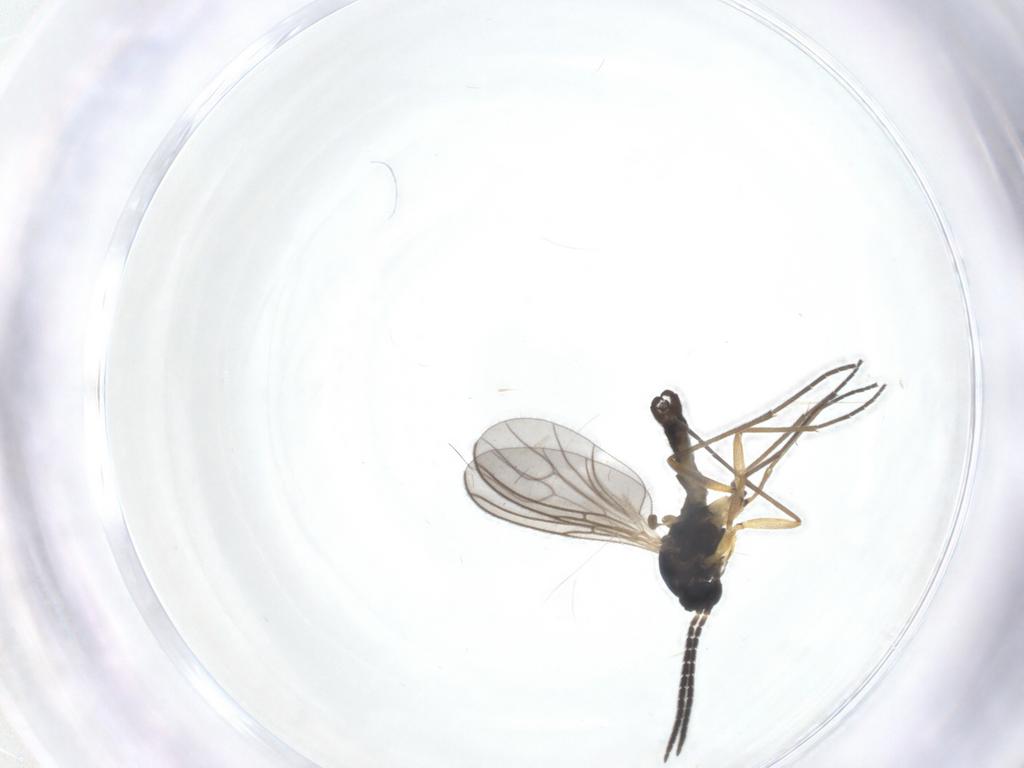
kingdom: Animalia
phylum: Arthropoda
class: Insecta
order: Diptera
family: Sciaridae
